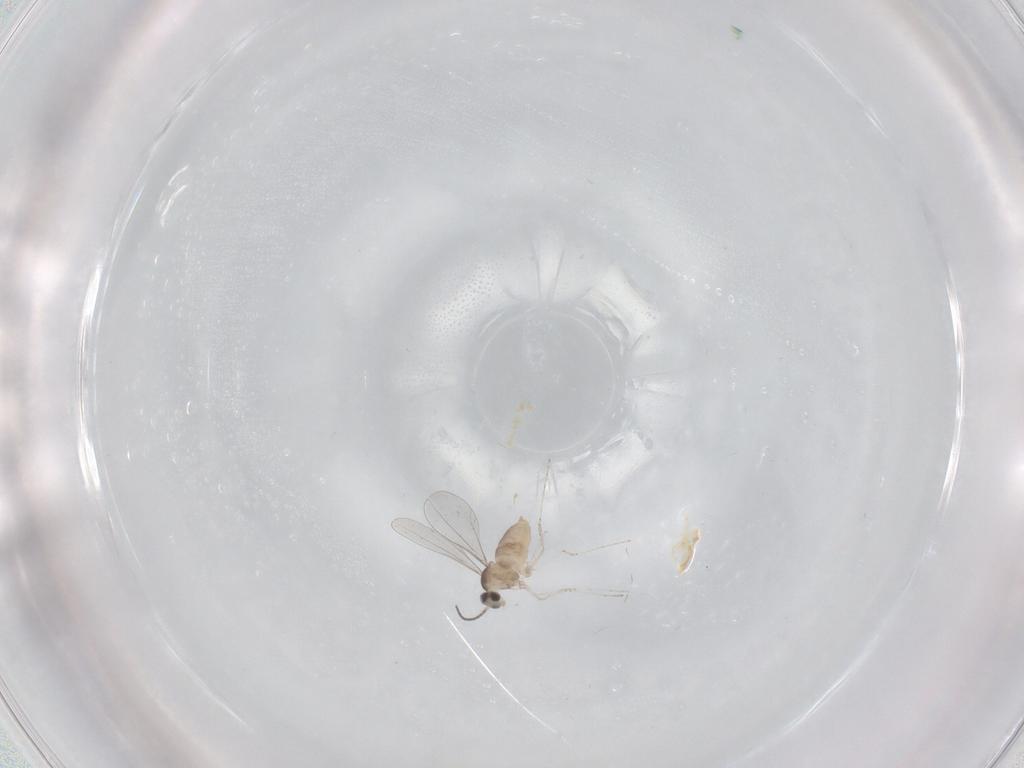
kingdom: Animalia
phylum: Arthropoda
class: Insecta
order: Diptera
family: Cecidomyiidae
